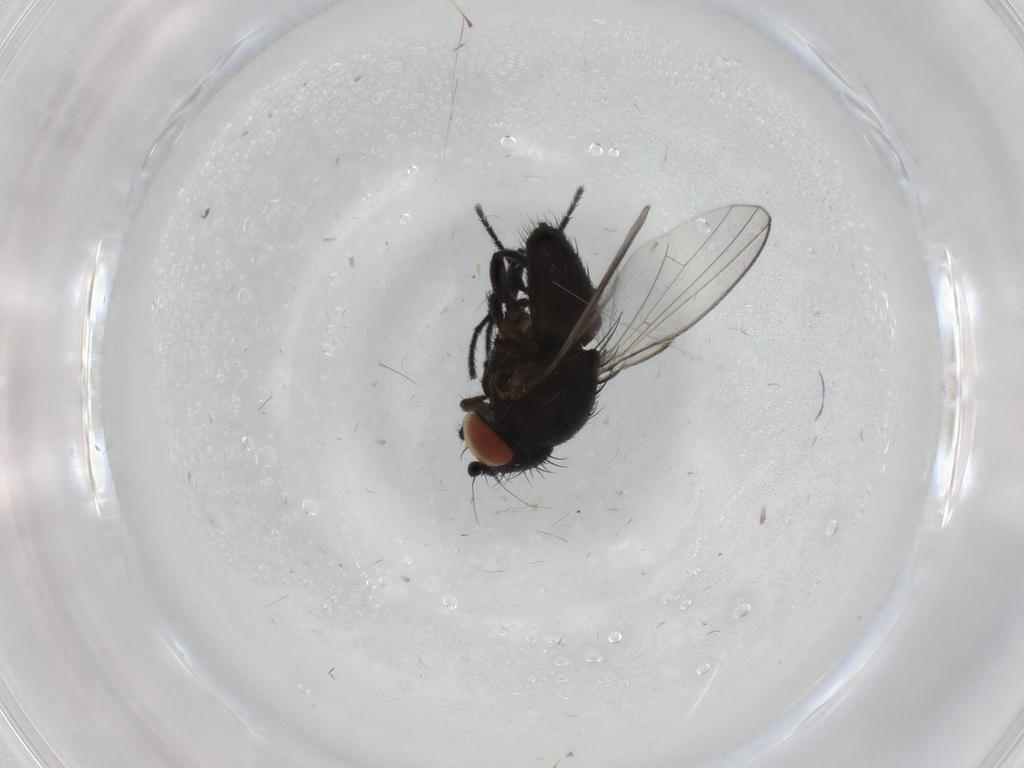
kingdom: Animalia
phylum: Arthropoda
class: Insecta
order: Diptera
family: Milichiidae
